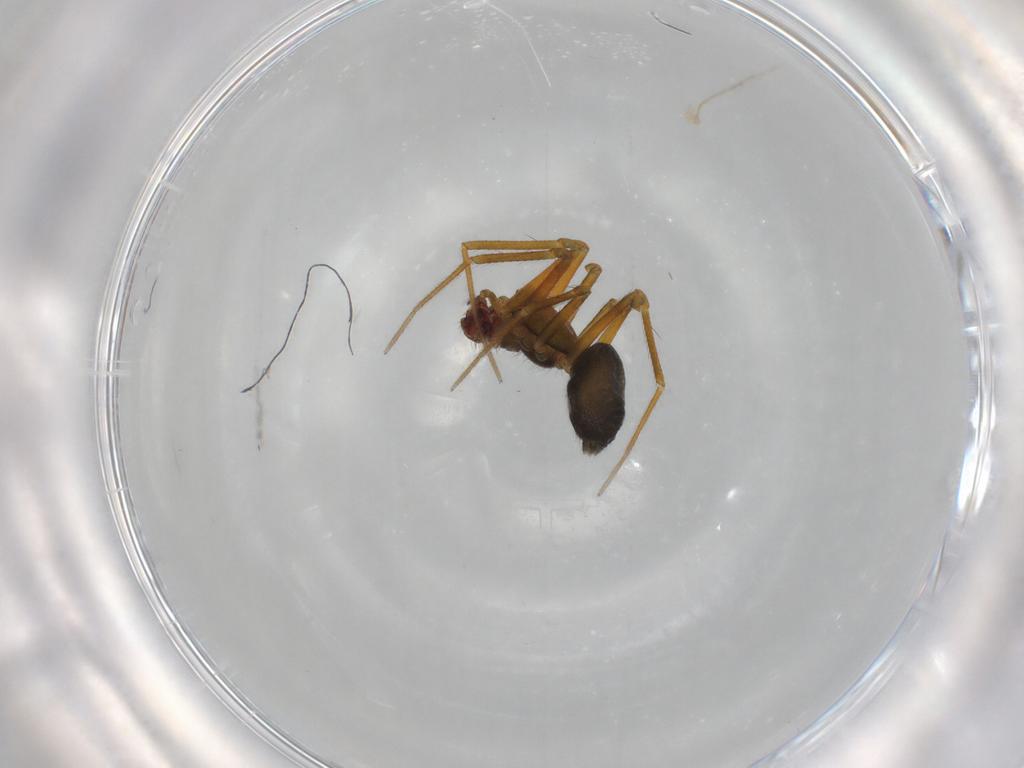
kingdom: Animalia
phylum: Arthropoda
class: Arachnida
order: Araneae
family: Linyphiidae
